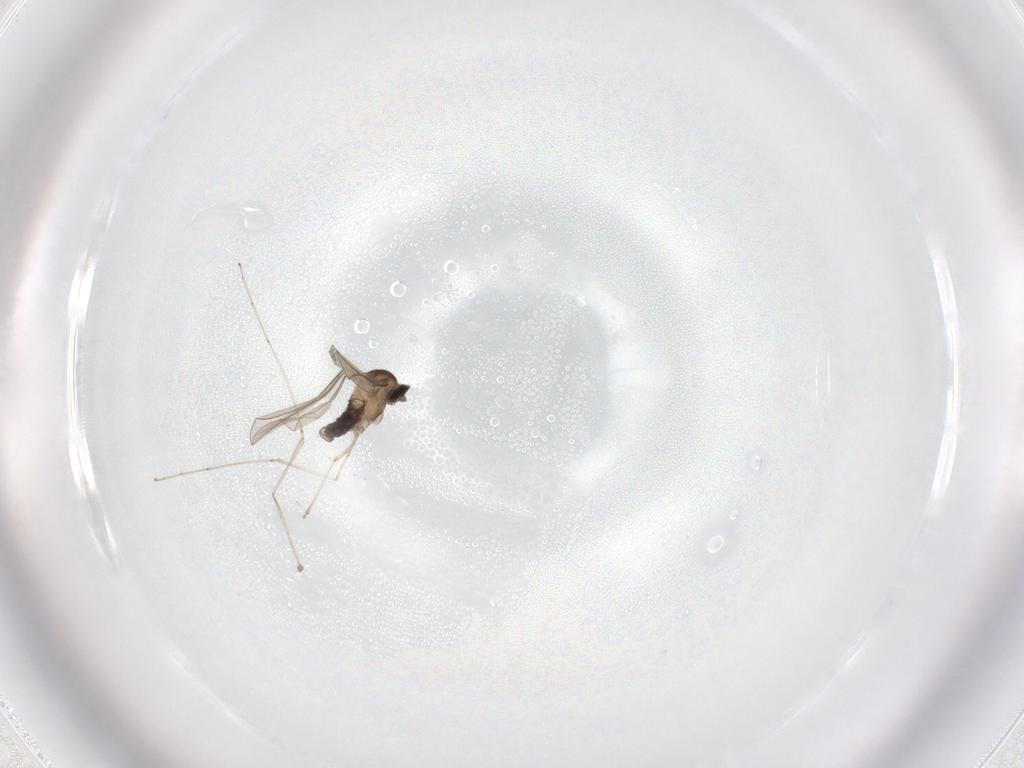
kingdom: Animalia
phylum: Arthropoda
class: Insecta
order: Diptera
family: Cecidomyiidae
